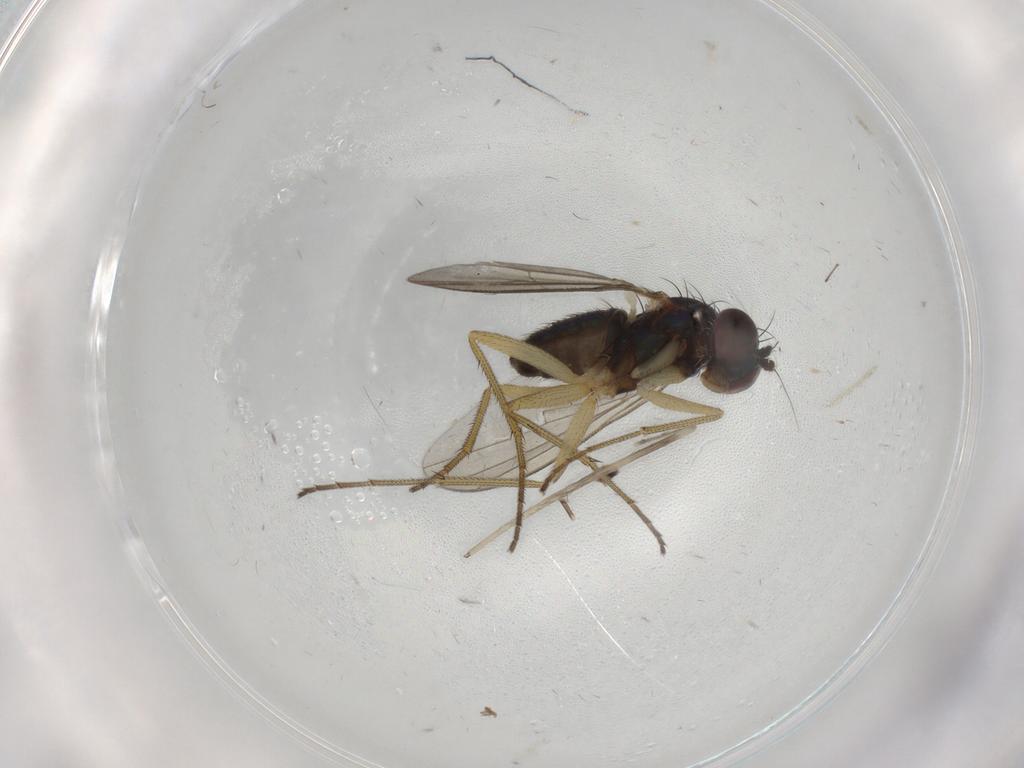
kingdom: Animalia
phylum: Arthropoda
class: Insecta
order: Diptera
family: Dolichopodidae
